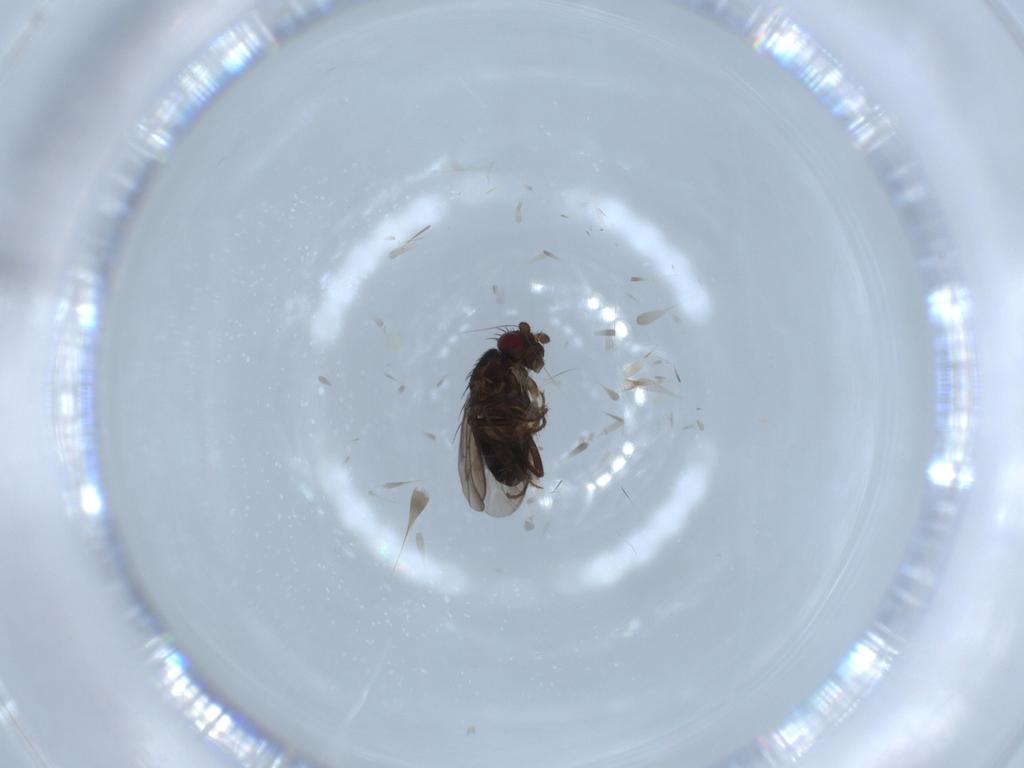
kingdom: Animalia
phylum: Arthropoda
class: Insecta
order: Diptera
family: Sphaeroceridae
